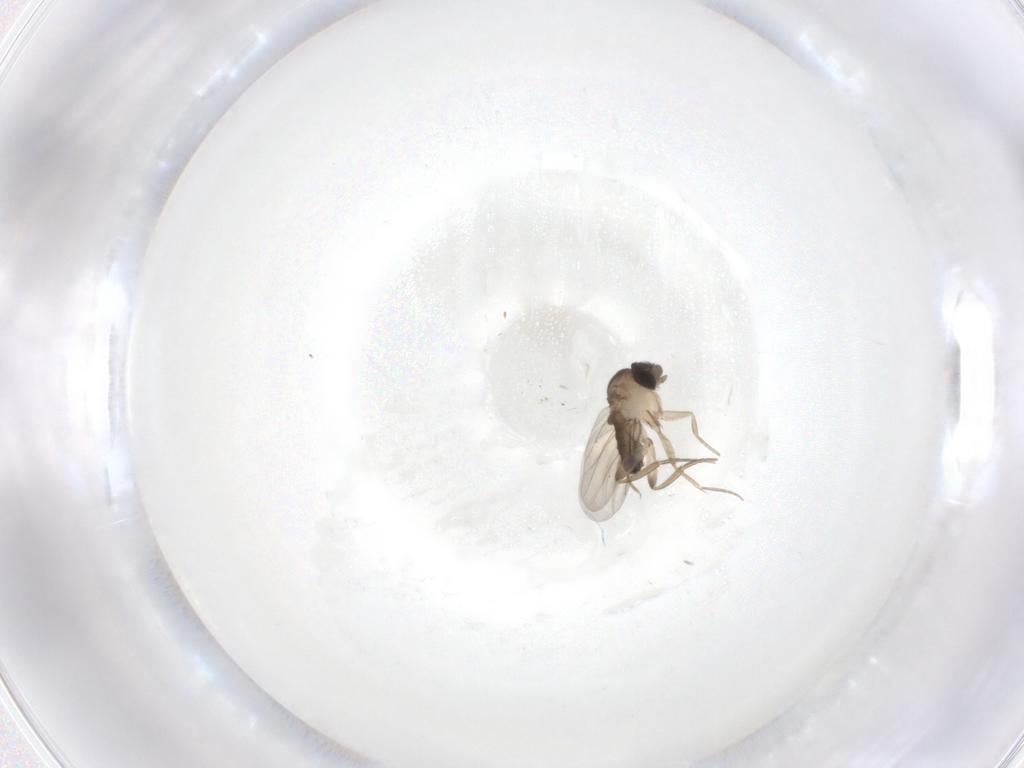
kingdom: Animalia
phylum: Arthropoda
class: Insecta
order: Diptera
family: Phoridae
